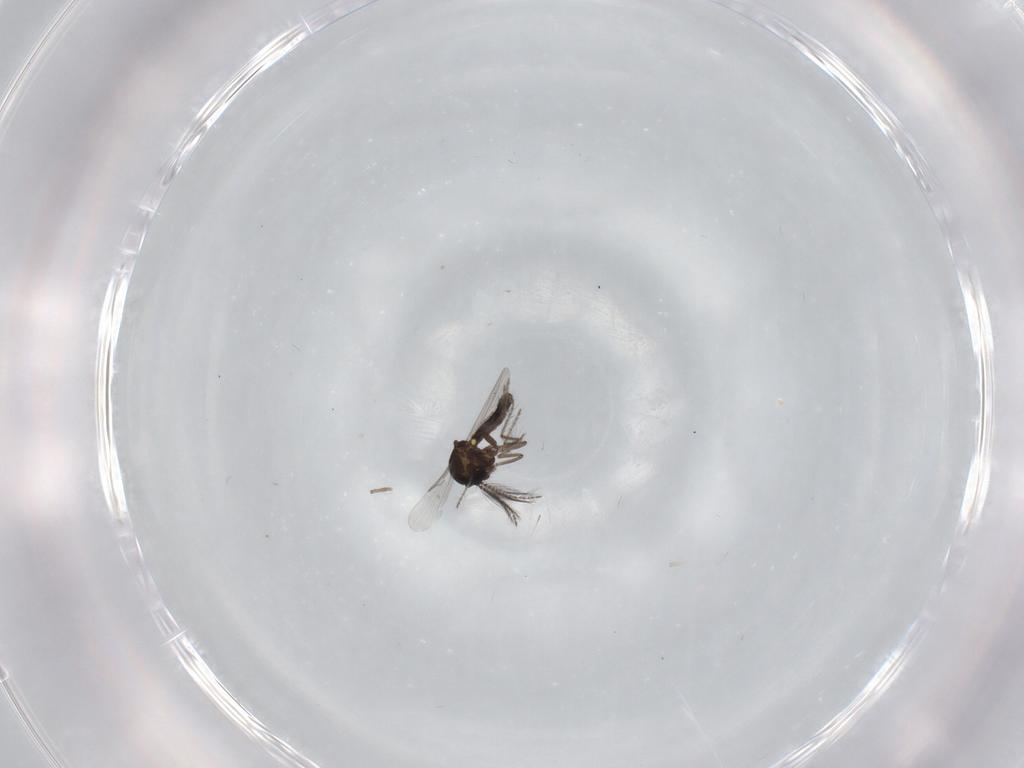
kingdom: Animalia
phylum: Arthropoda
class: Insecta
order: Diptera
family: Ceratopogonidae
